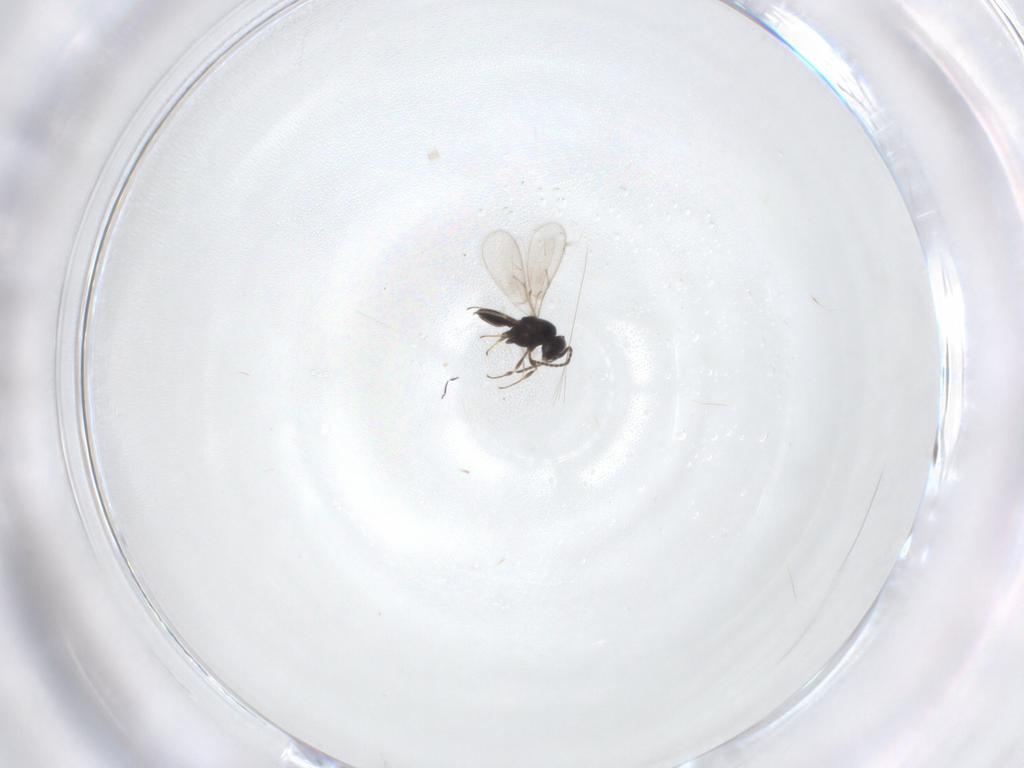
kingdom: Animalia
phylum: Arthropoda
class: Insecta
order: Hymenoptera
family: Scelionidae
